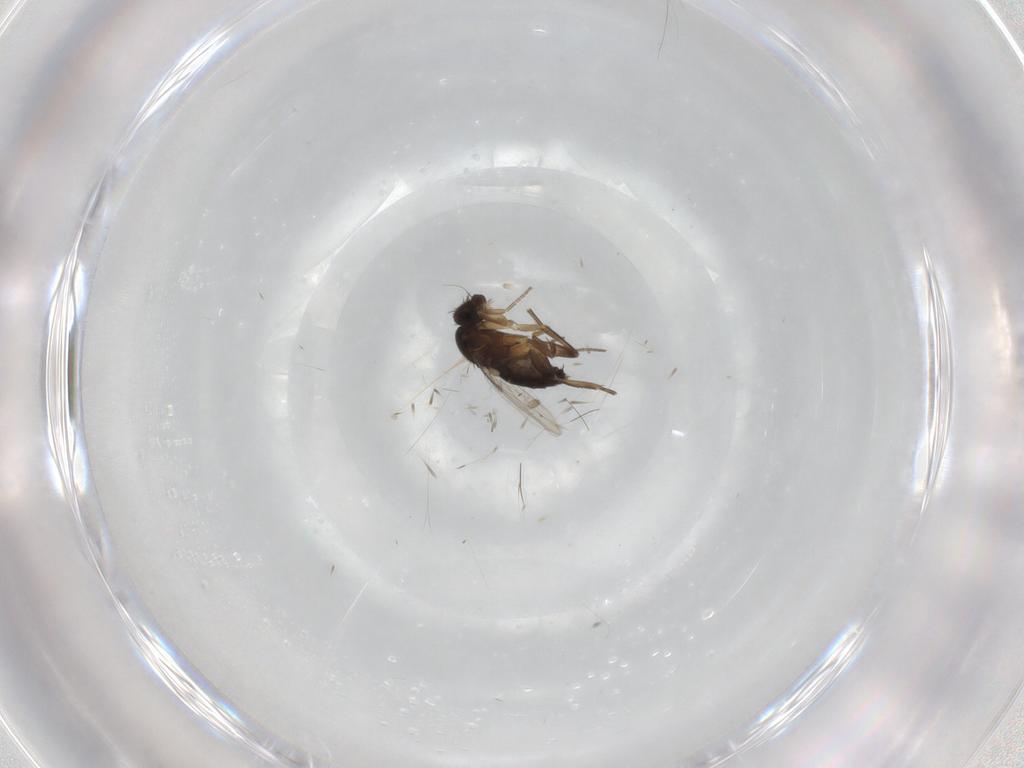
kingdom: Animalia
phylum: Arthropoda
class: Insecta
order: Diptera
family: Phoridae
